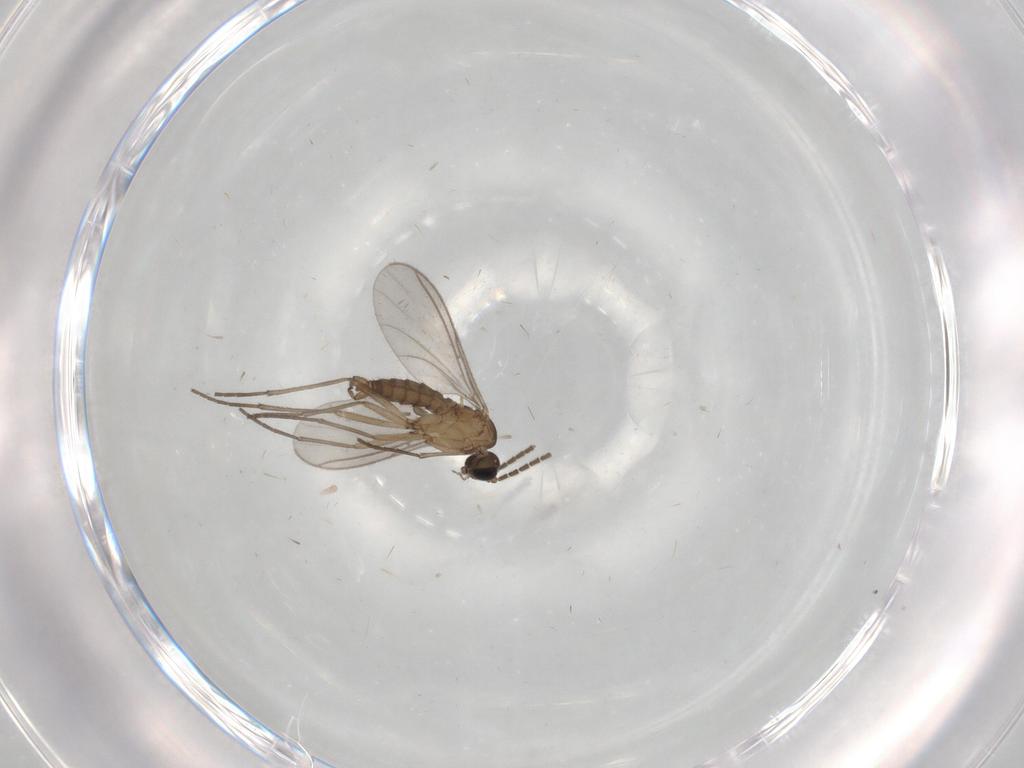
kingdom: Animalia
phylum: Arthropoda
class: Insecta
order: Diptera
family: Sciaridae
